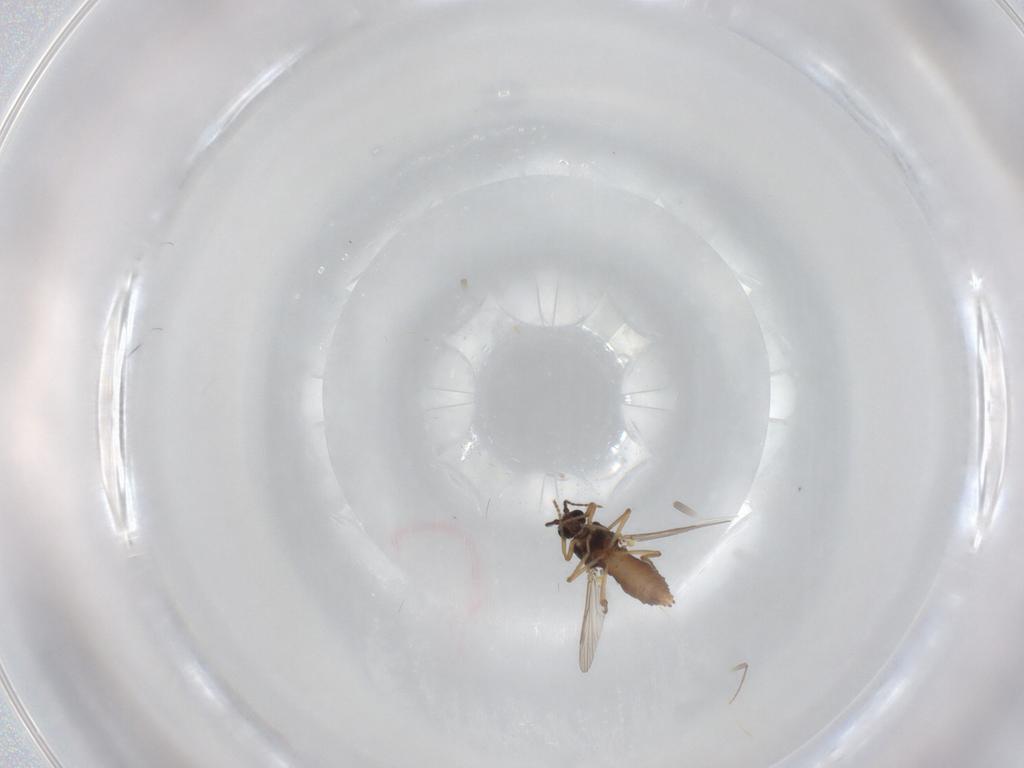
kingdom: Animalia
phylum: Arthropoda
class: Insecta
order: Diptera
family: Ceratopogonidae
